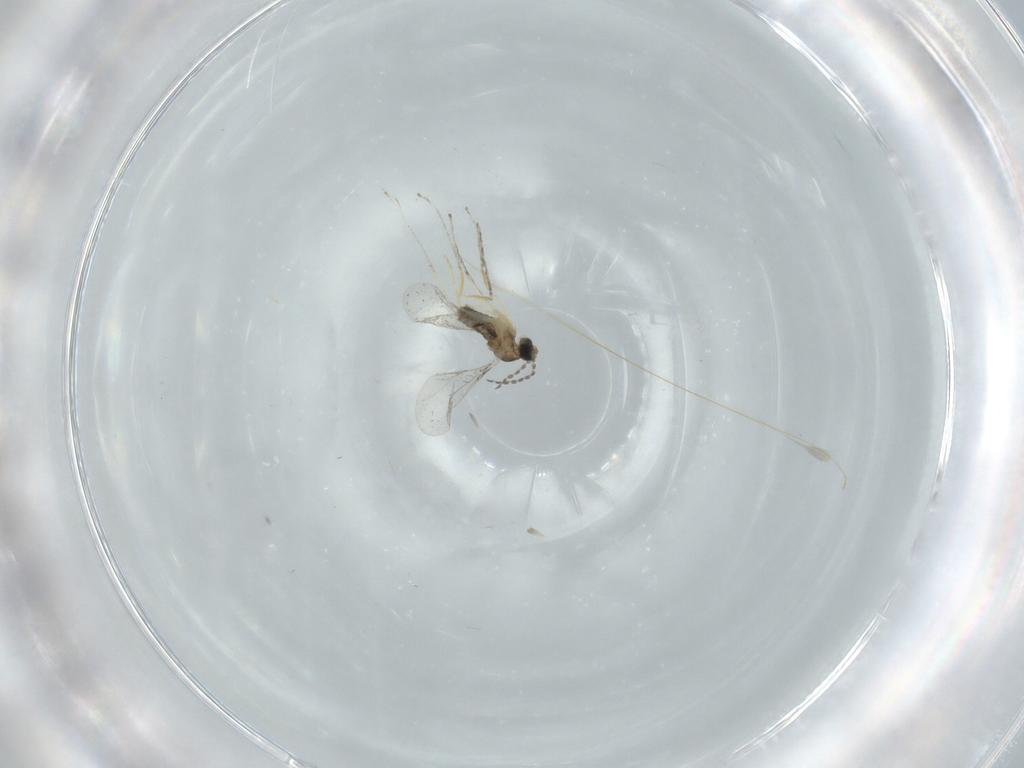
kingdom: Animalia
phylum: Arthropoda
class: Insecta
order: Diptera
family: Cecidomyiidae
